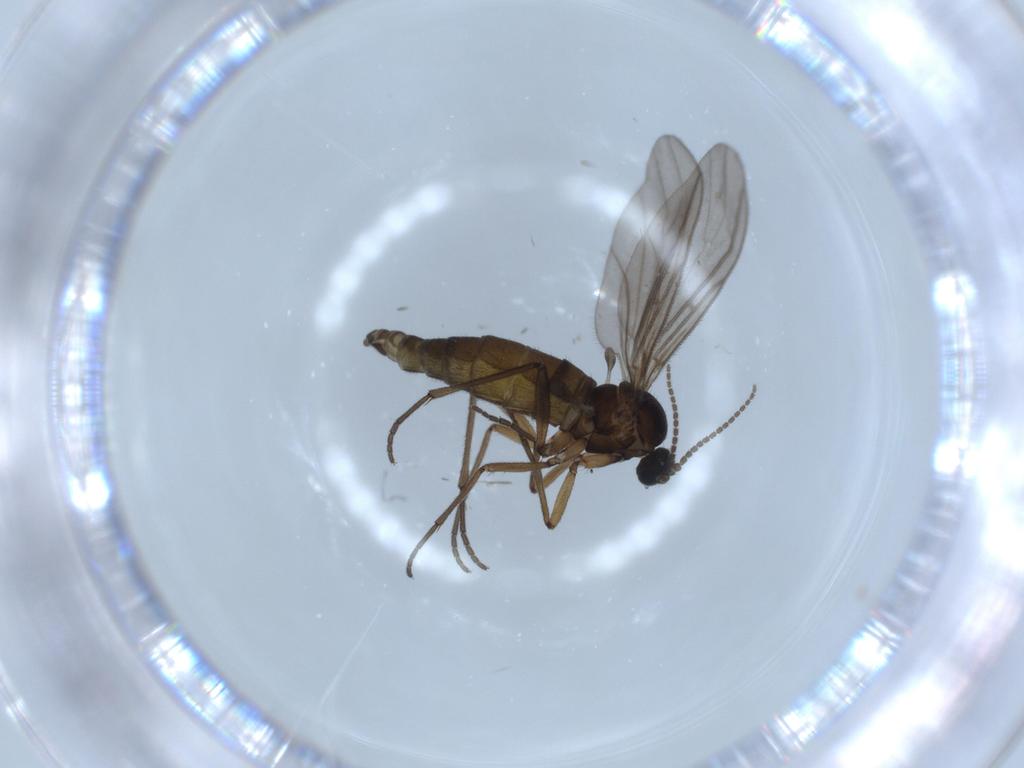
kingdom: Animalia
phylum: Arthropoda
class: Insecta
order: Diptera
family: Sciaridae
